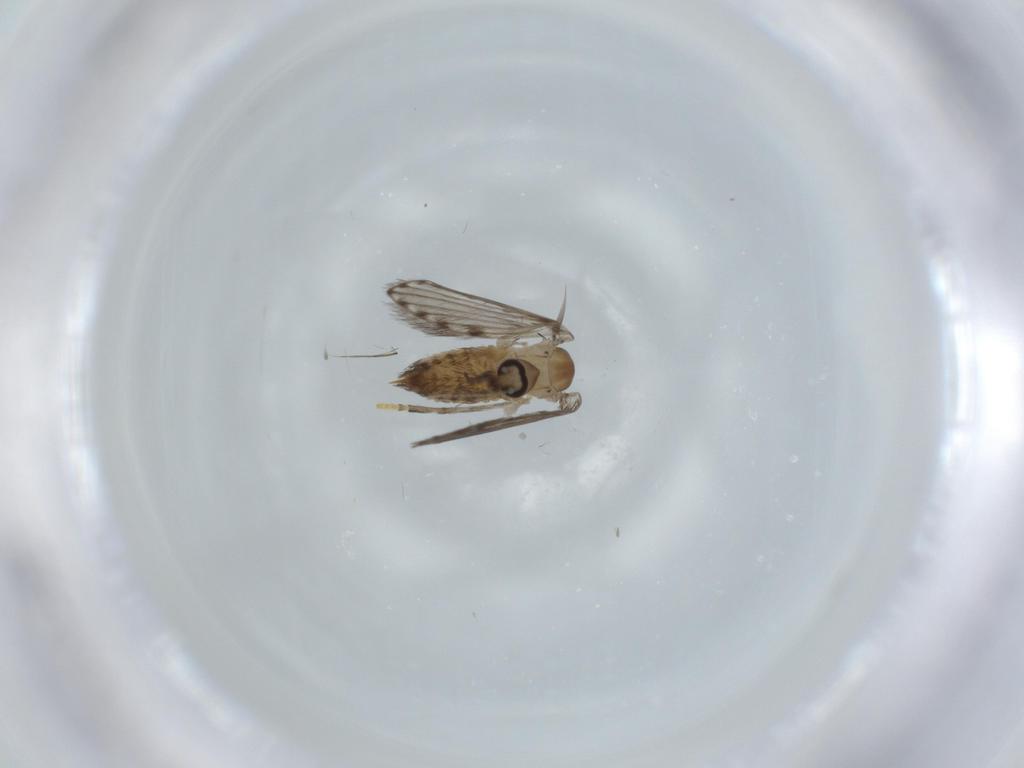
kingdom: Animalia
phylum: Arthropoda
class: Insecta
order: Diptera
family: Psychodidae
